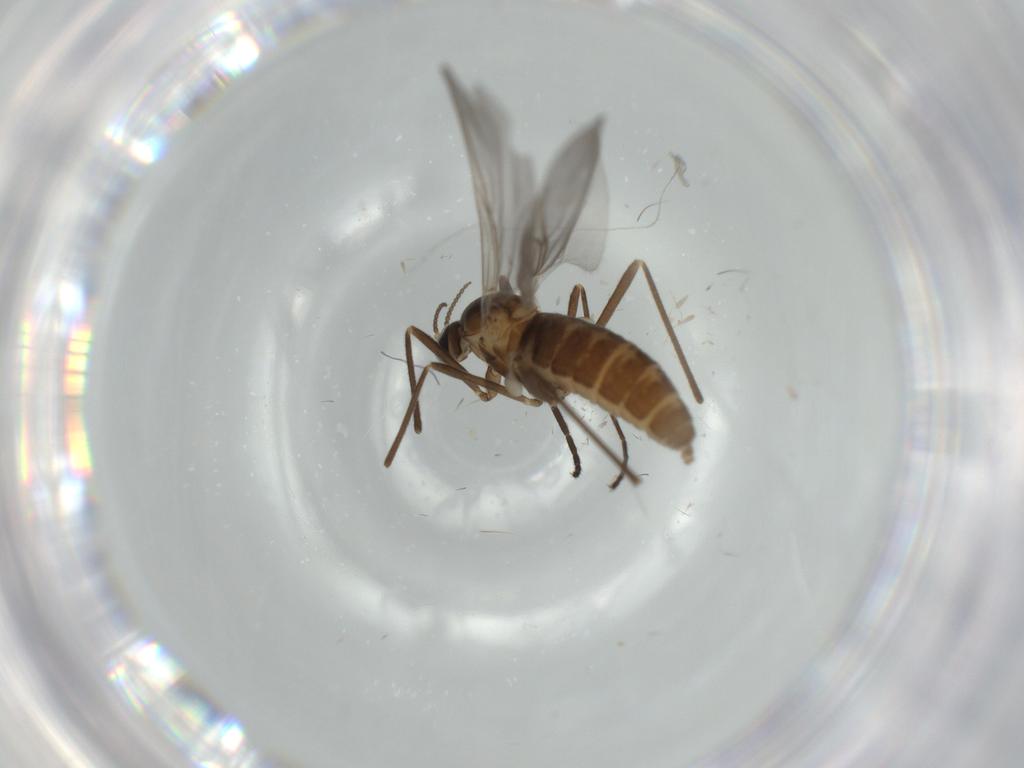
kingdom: Animalia
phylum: Arthropoda
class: Insecta
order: Diptera
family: Cecidomyiidae
